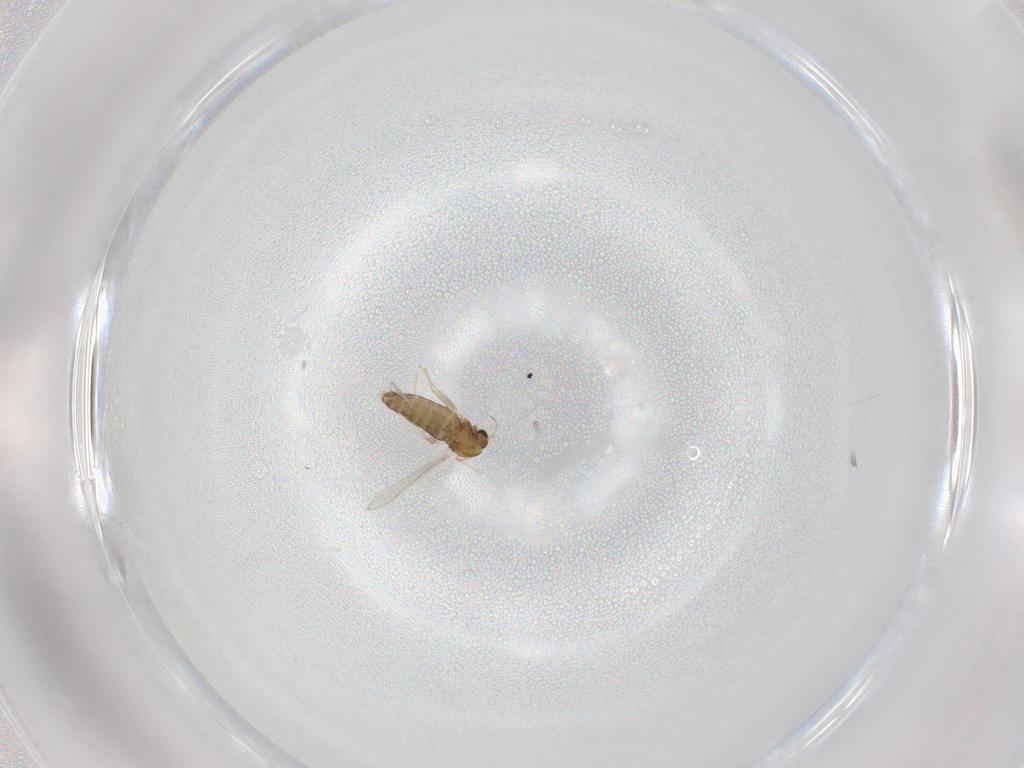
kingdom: Animalia
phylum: Arthropoda
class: Insecta
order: Diptera
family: Chironomidae
